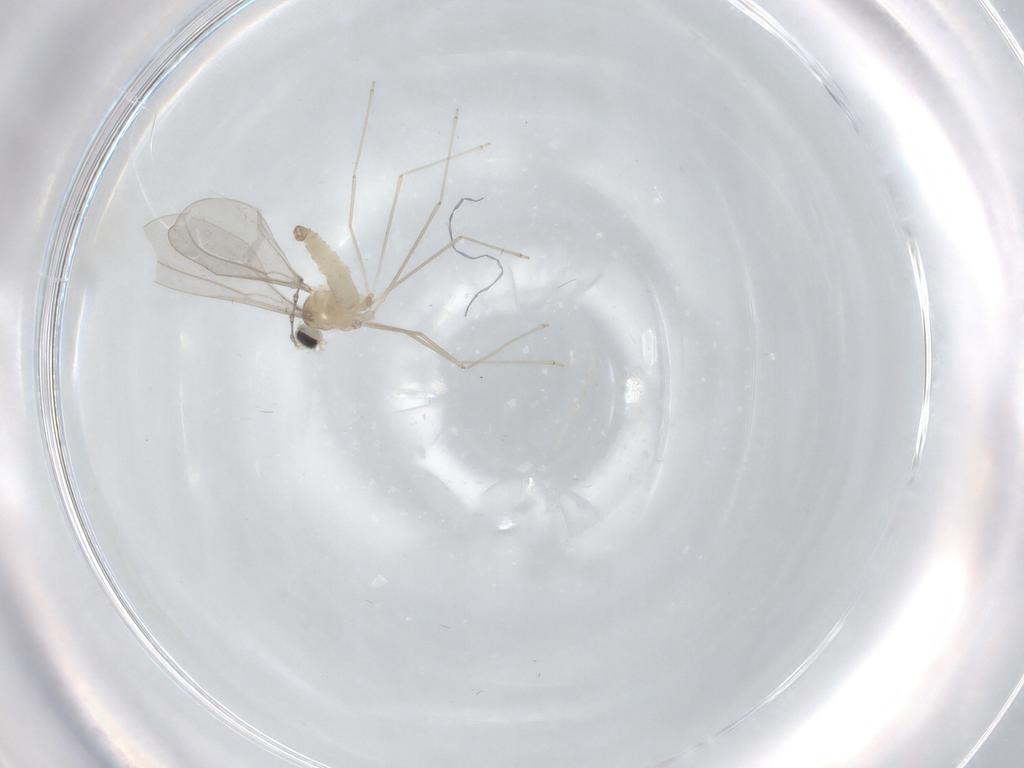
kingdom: Animalia
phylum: Arthropoda
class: Insecta
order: Diptera
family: Cecidomyiidae
